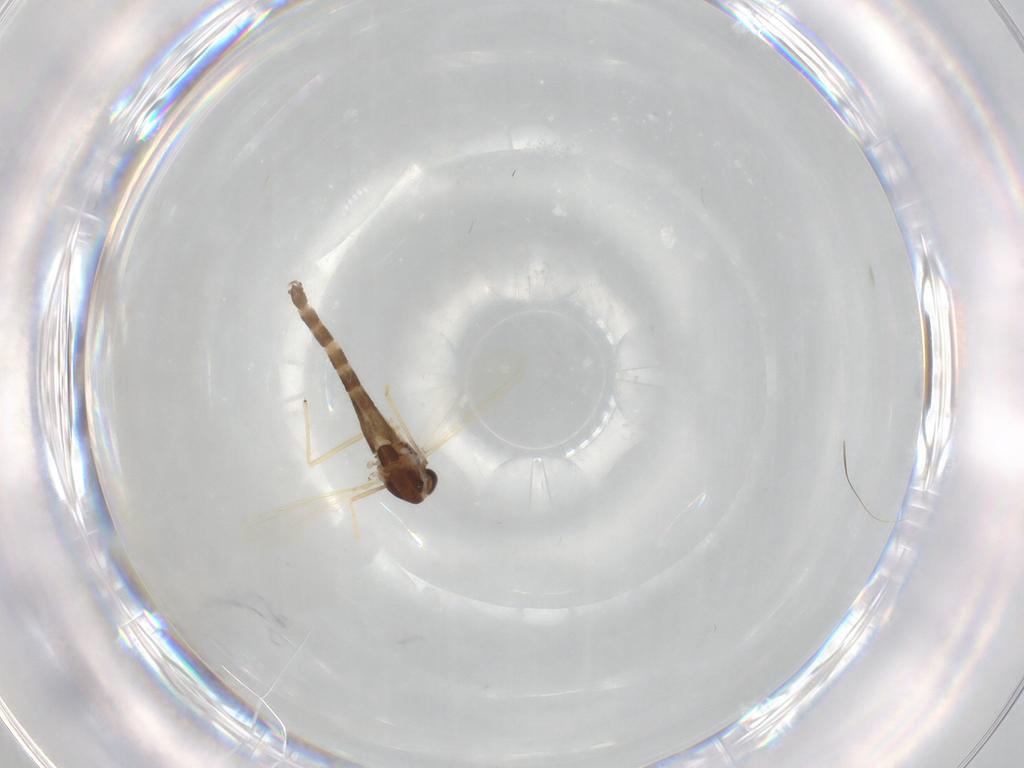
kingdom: Animalia
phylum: Arthropoda
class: Insecta
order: Diptera
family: Chironomidae
